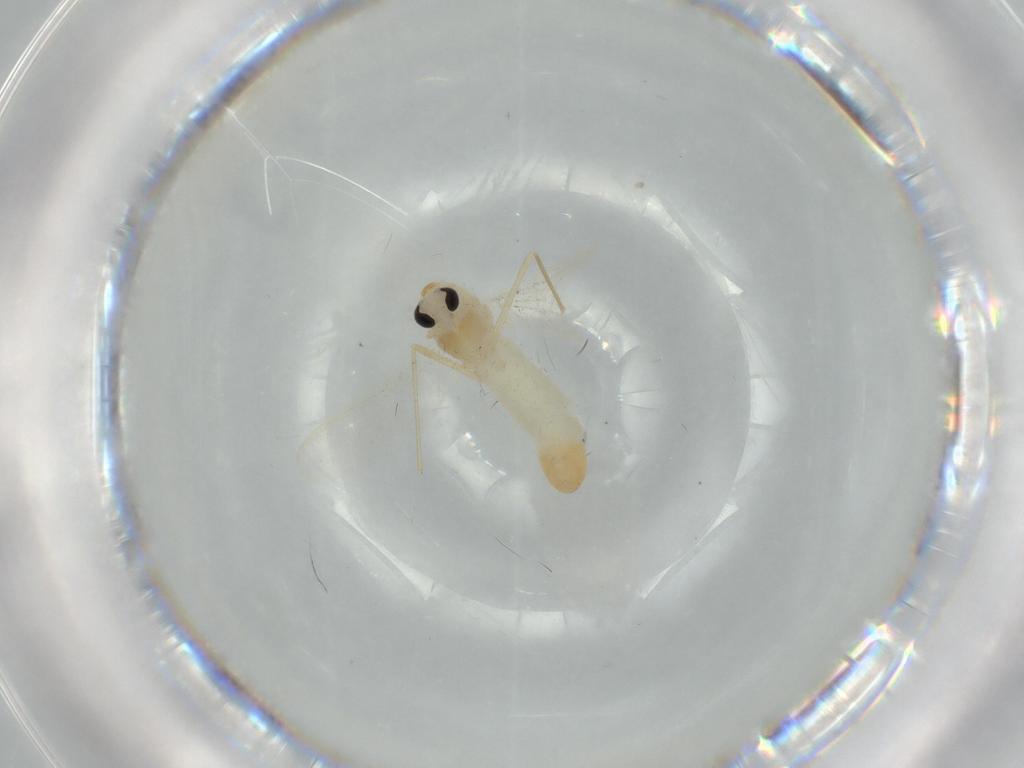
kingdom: Animalia
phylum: Arthropoda
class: Insecta
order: Diptera
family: Chironomidae
